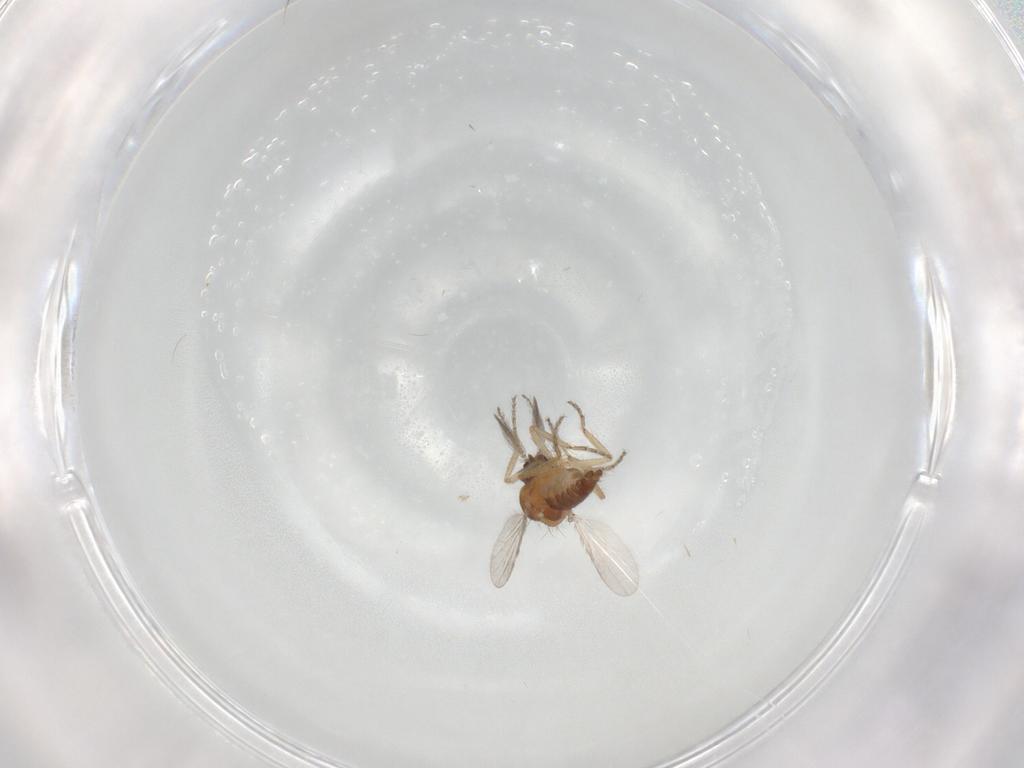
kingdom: Animalia
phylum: Arthropoda
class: Insecta
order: Diptera
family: Ceratopogonidae
